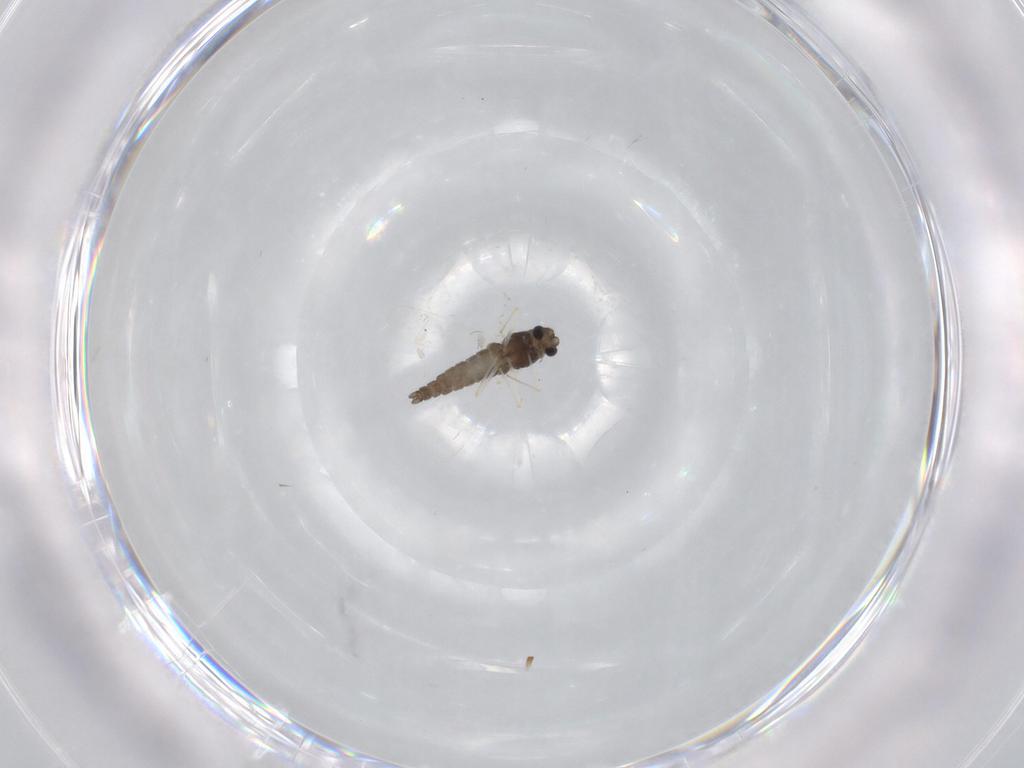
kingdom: Animalia
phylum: Arthropoda
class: Insecta
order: Diptera
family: Chironomidae
